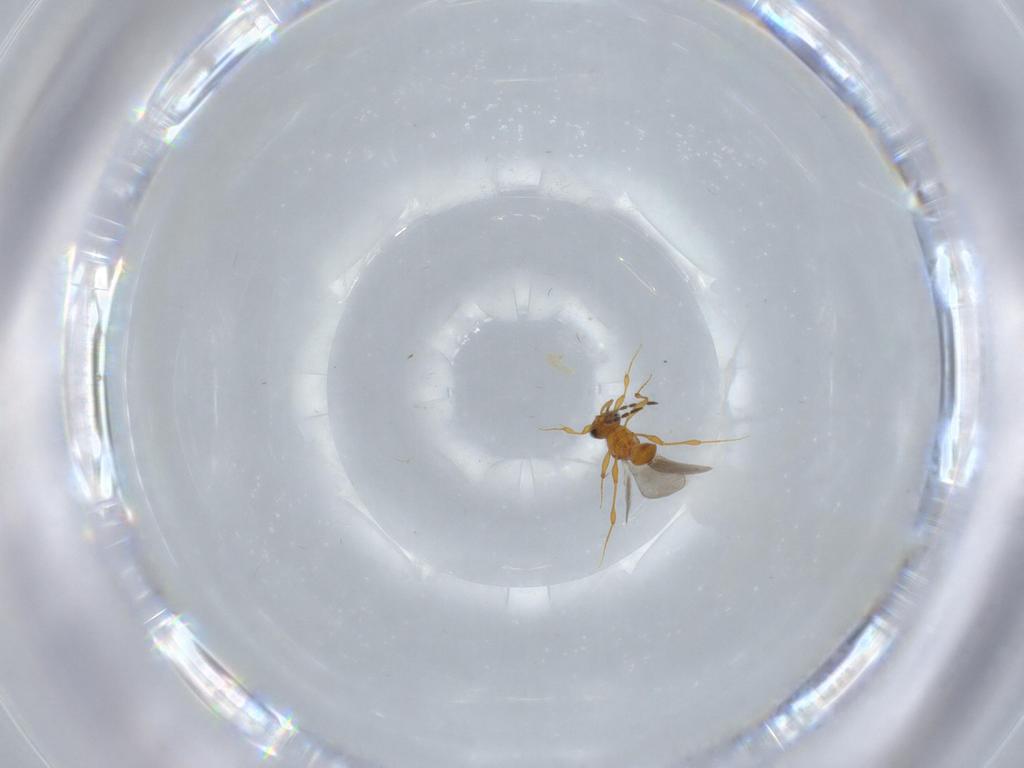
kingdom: Animalia
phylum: Arthropoda
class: Insecta
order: Hymenoptera
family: Platygastridae
